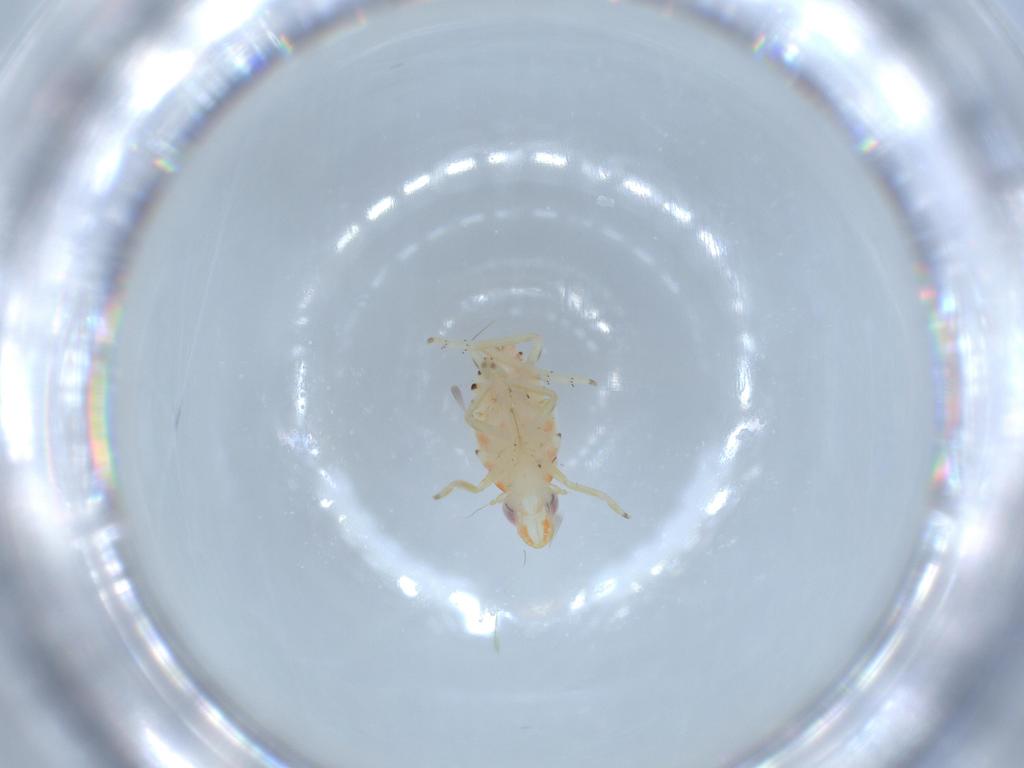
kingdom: Animalia
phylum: Arthropoda
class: Insecta
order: Hemiptera
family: Tropiduchidae
